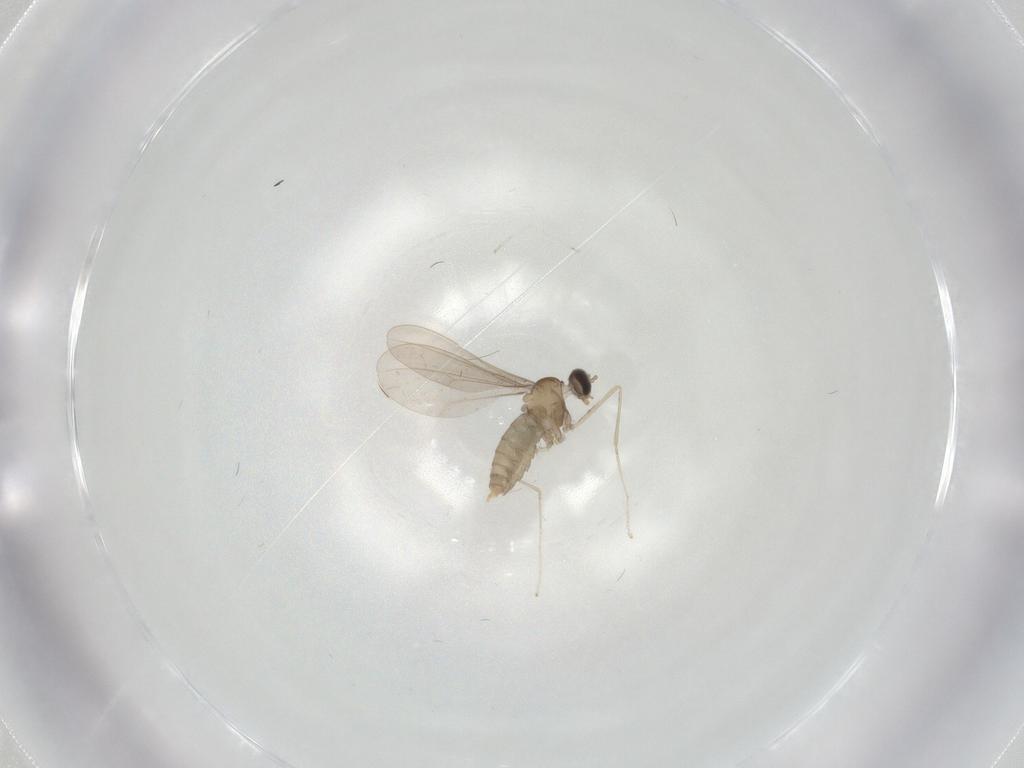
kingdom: Animalia
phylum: Arthropoda
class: Insecta
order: Diptera
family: Cecidomyiidae
